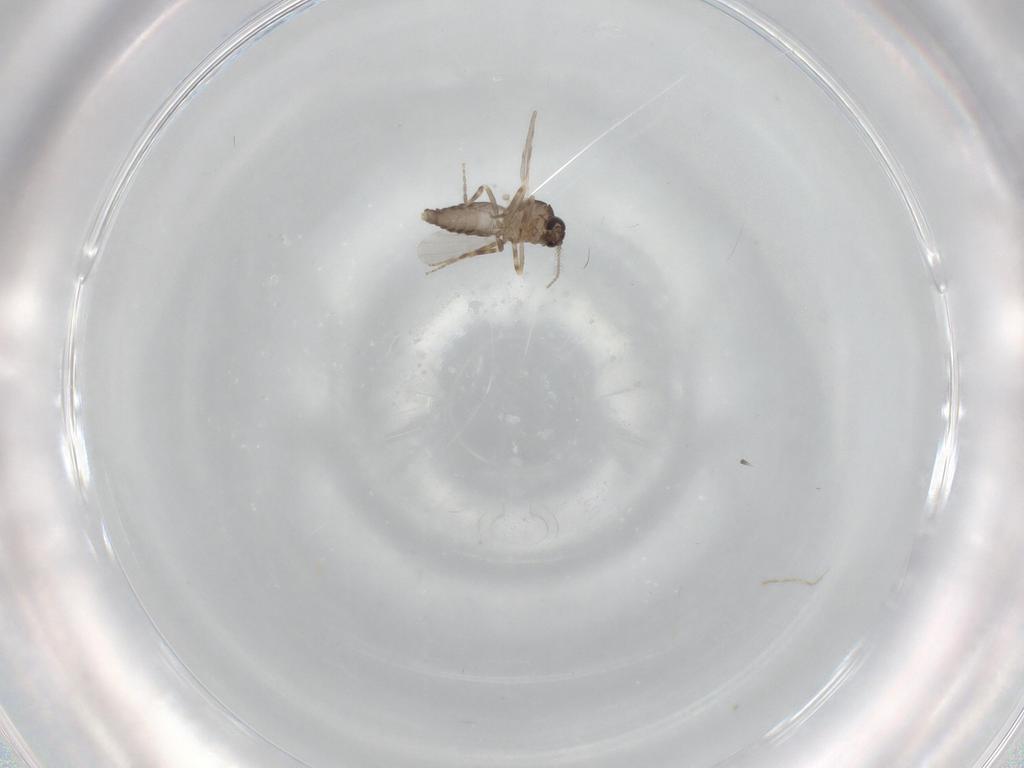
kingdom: Animalia
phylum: Arthropoda
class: Insecta
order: Diptera
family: Ceratopogonidae
